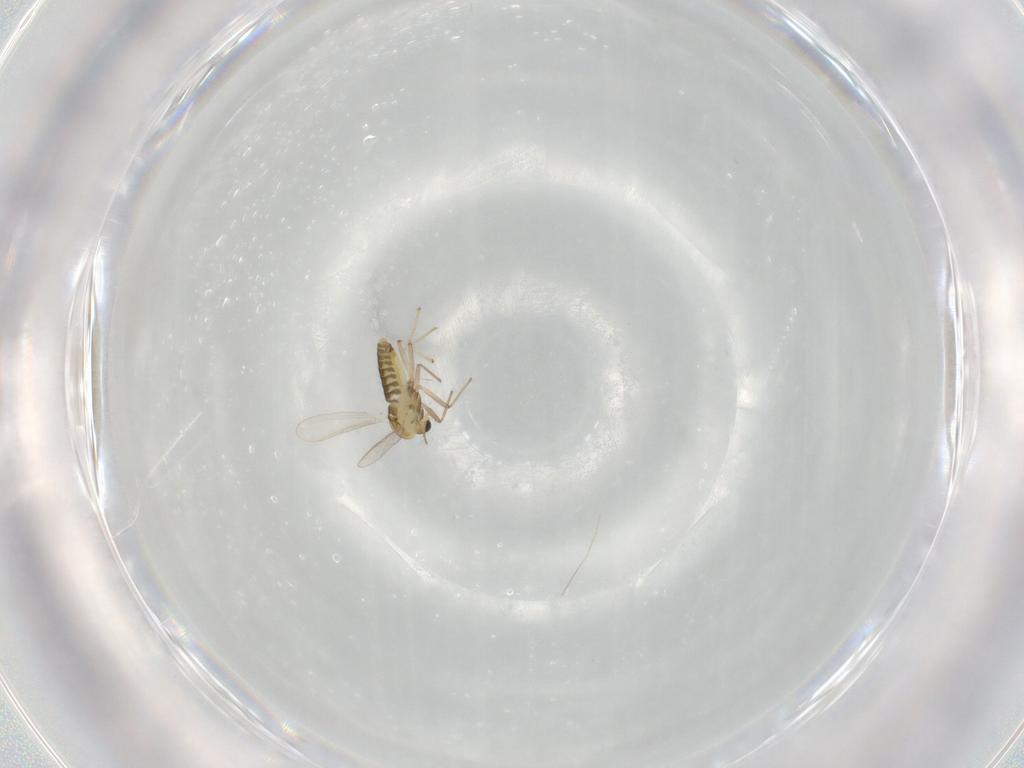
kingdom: Animalia
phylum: Arthropoda
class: Insecta
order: Diptera
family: Chironomidae
